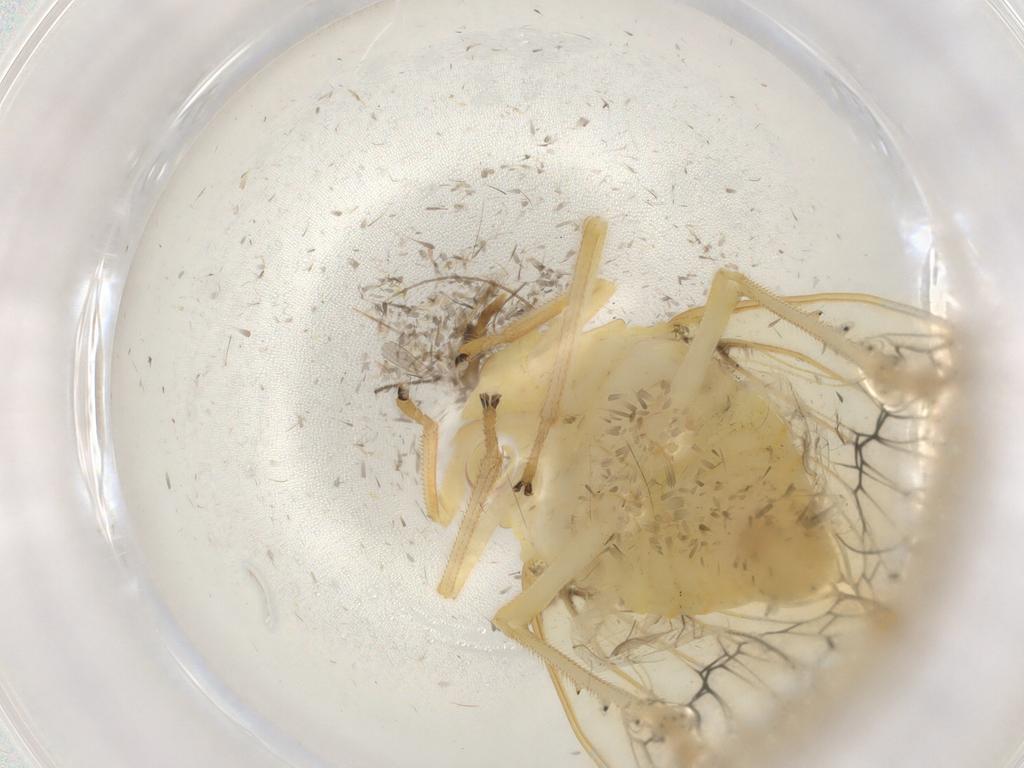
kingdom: Animalia
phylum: Arthropoda
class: Insecta
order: Hemiptera
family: Tropiduchidae
